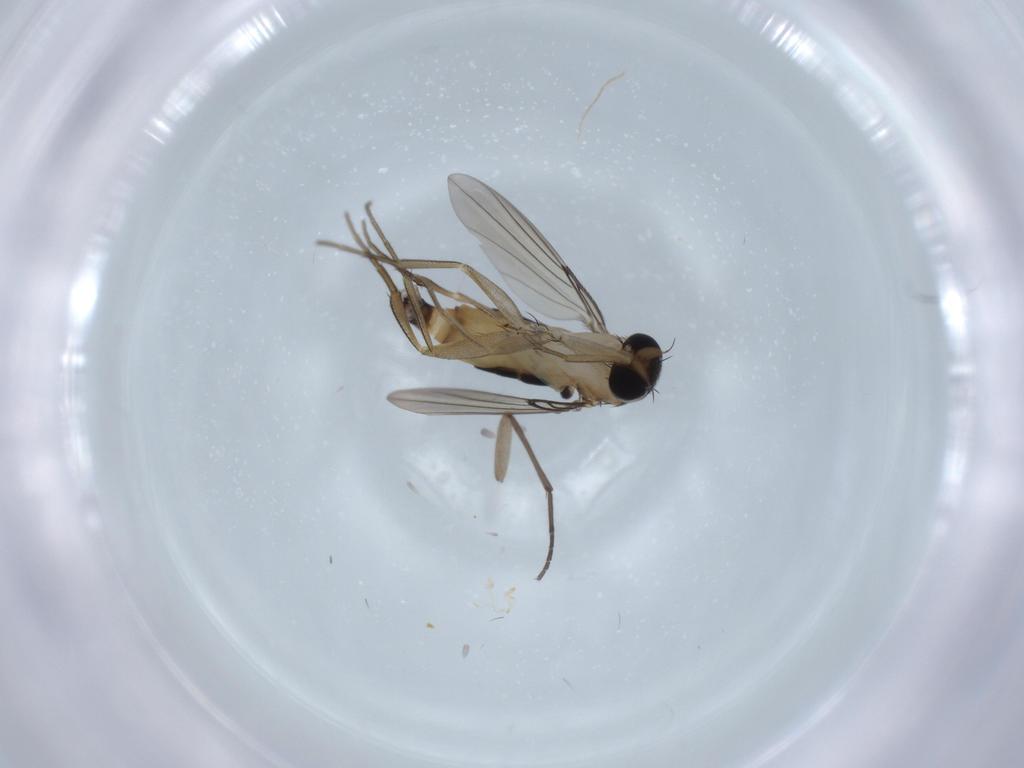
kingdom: Animalia
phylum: Arthropoda
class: Insecta
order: Diptera
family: Phoridae
